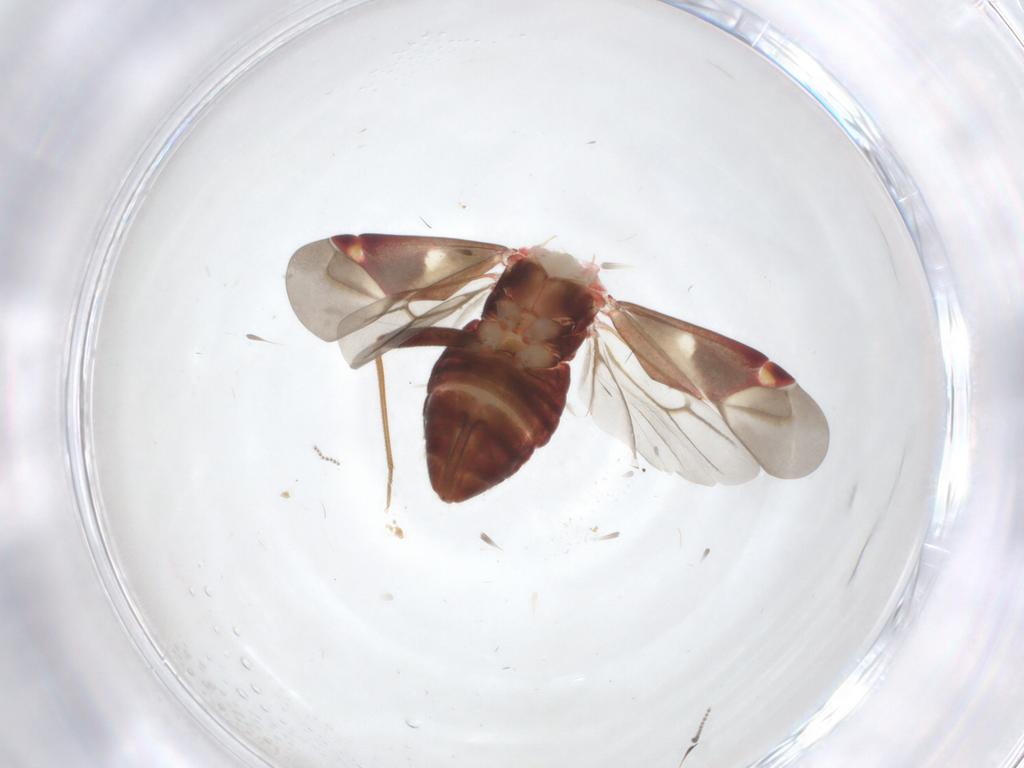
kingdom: Animalia
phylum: Arthropoda
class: Insecta
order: Hemiptera
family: Miridae
